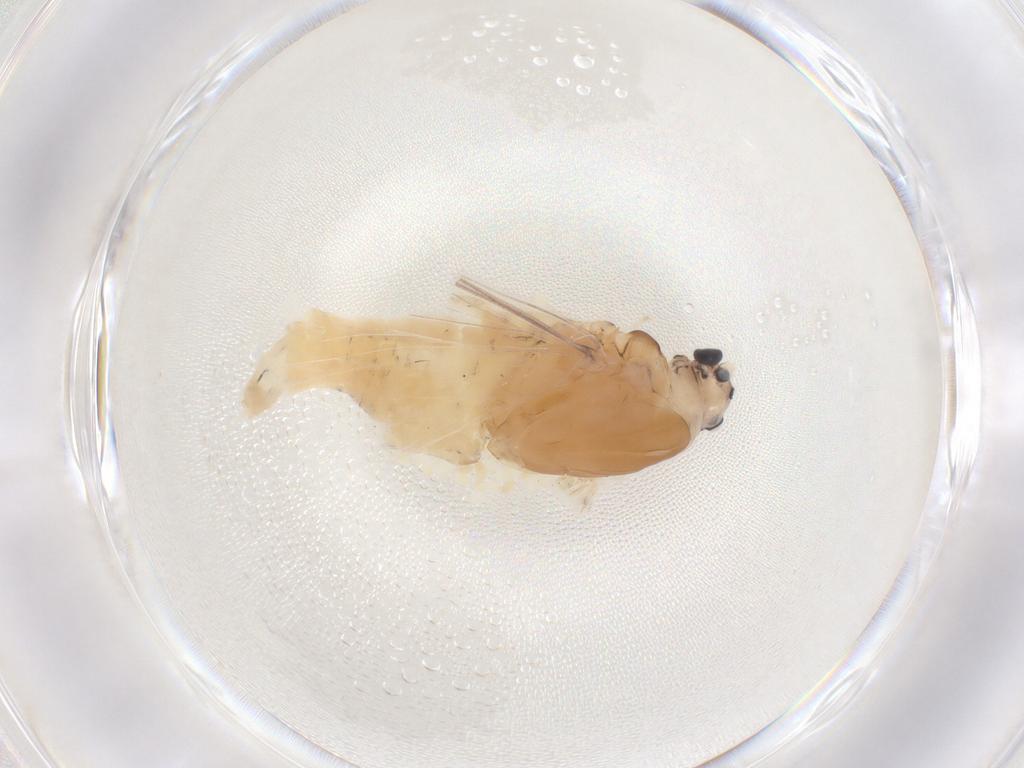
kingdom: Animalia
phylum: Arthropoda
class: Insecta
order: Ephemeroptera
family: Caenidae
